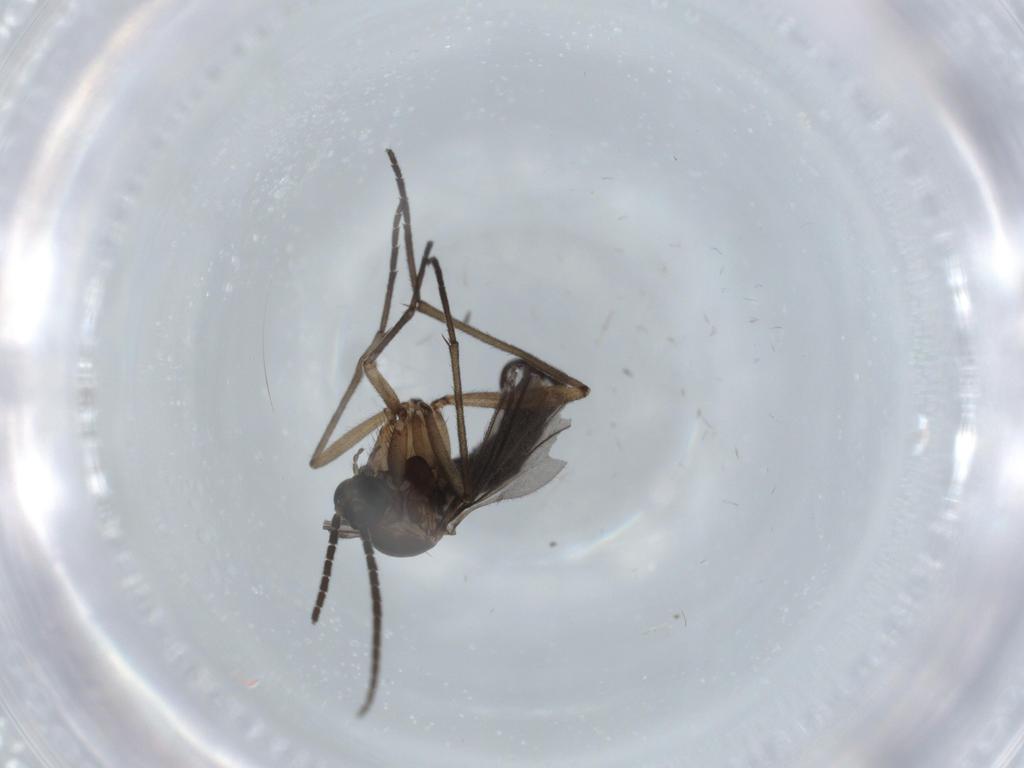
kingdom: Animalia
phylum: Arthropoda
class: Insecta
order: Diptera
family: Sciaridae
